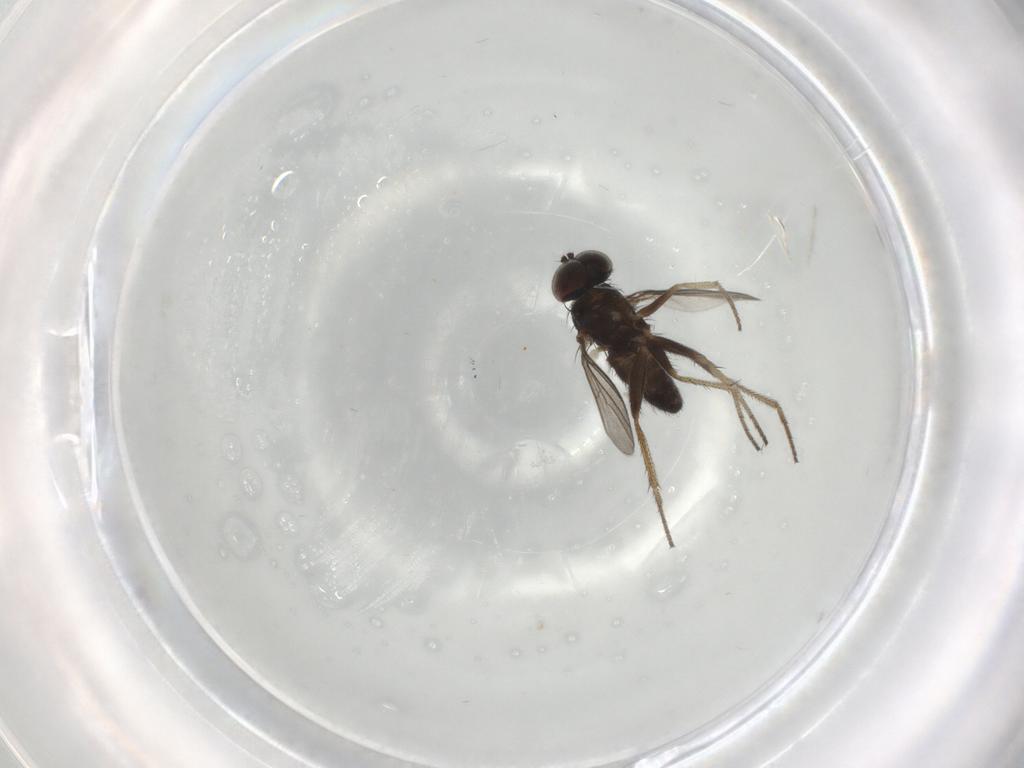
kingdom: Animalia
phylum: Arthropoda
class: Insecta
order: Diptera
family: Dolichopodidae
